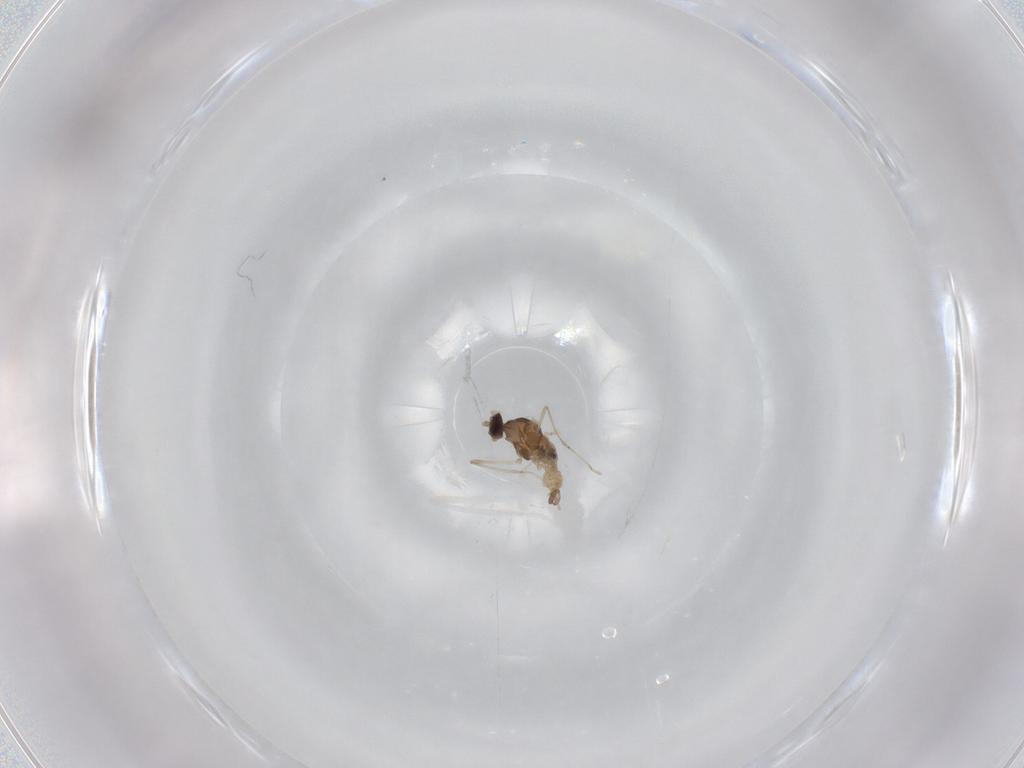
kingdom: Animalia
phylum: Arthropoda
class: Insecta
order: Diptera
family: Cecidomyiidae
